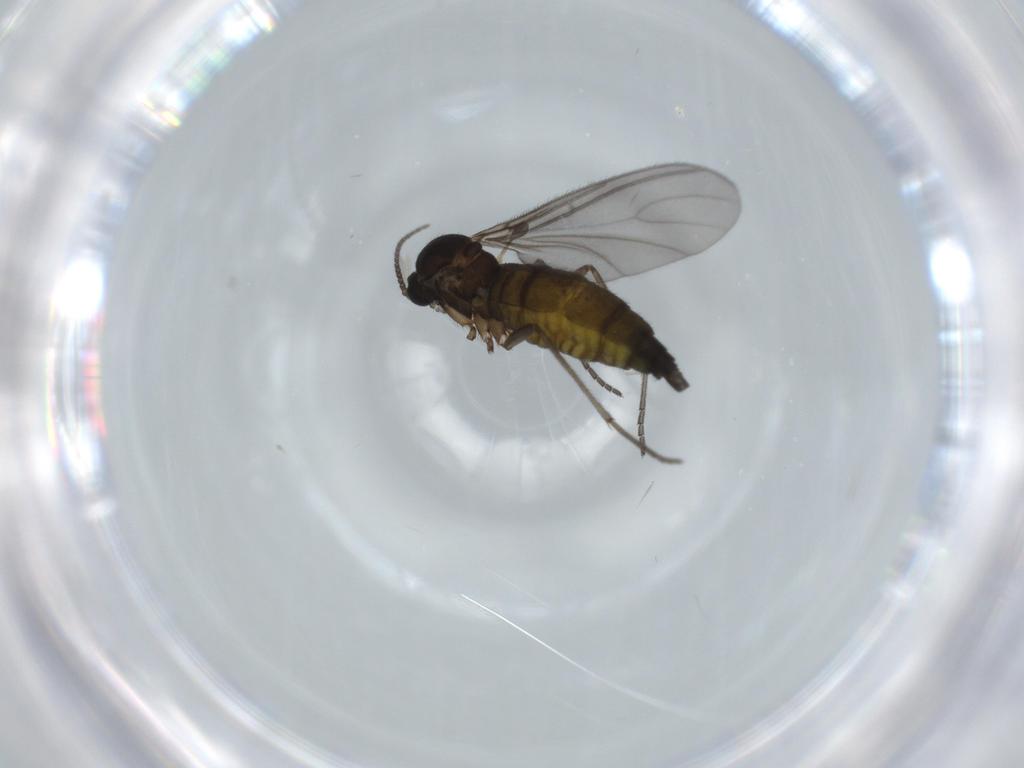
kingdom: Animalia
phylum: Arthropoda
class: Insecta
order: Diptera
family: Sciaridae
